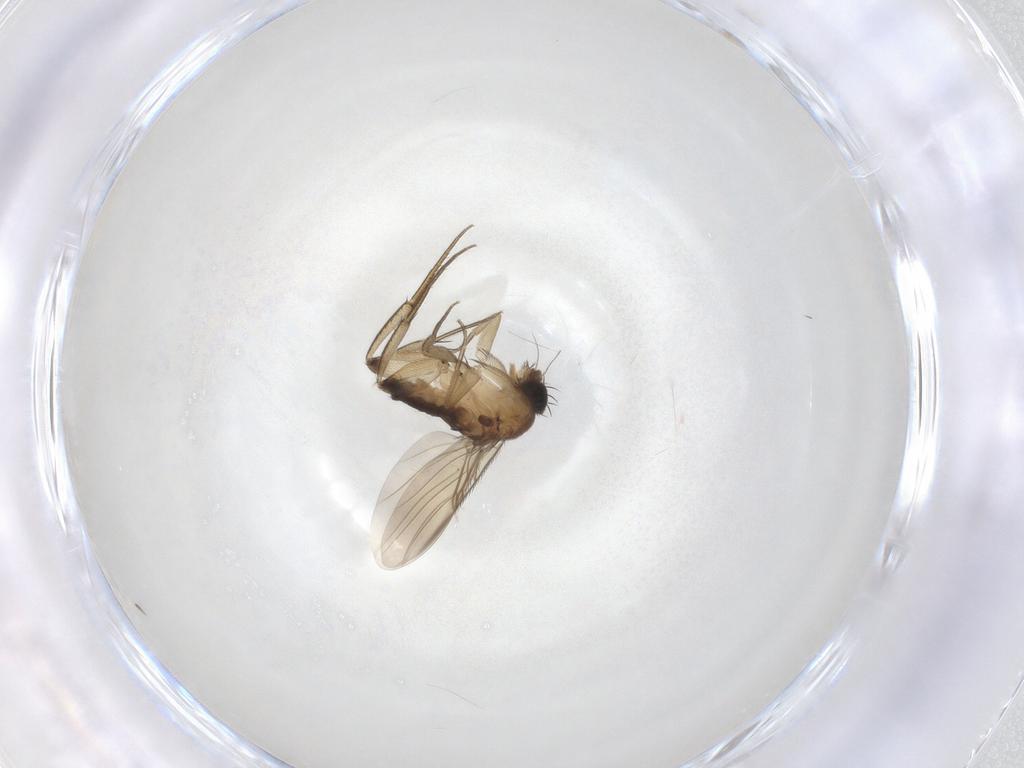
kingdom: Animalia
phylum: Arthropoda
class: Insecta
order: Diptera
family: Phoridae
